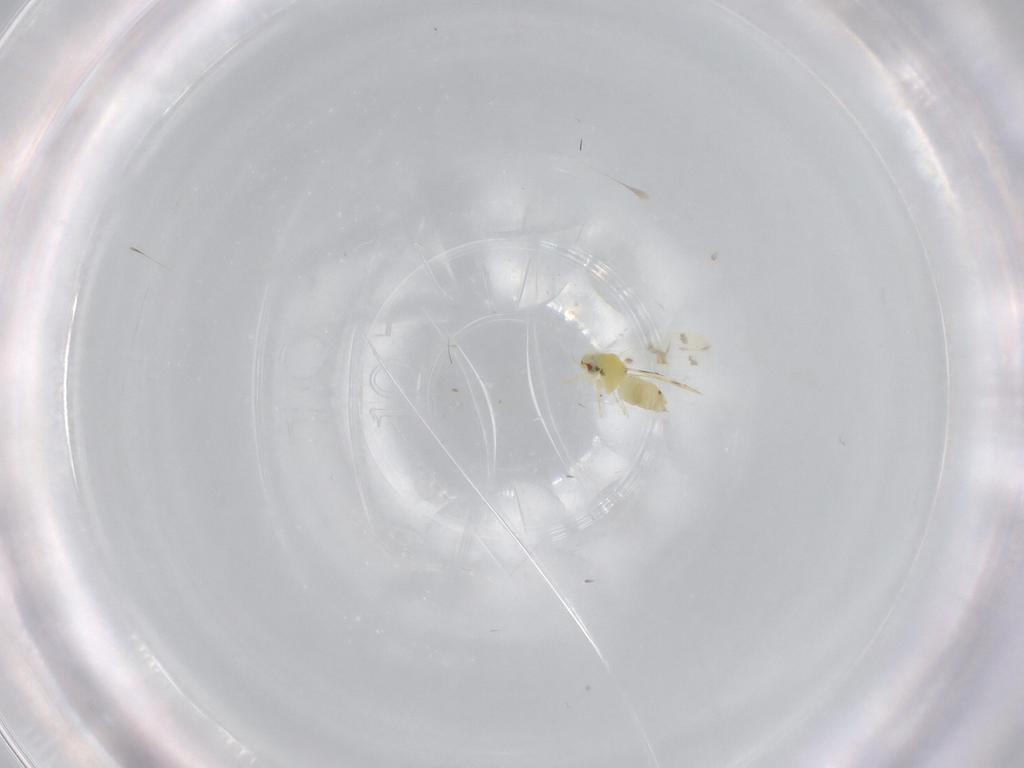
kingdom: Animalia
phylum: Arthropoda
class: Insecta
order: Hemiptera
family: Aleyrodidae
